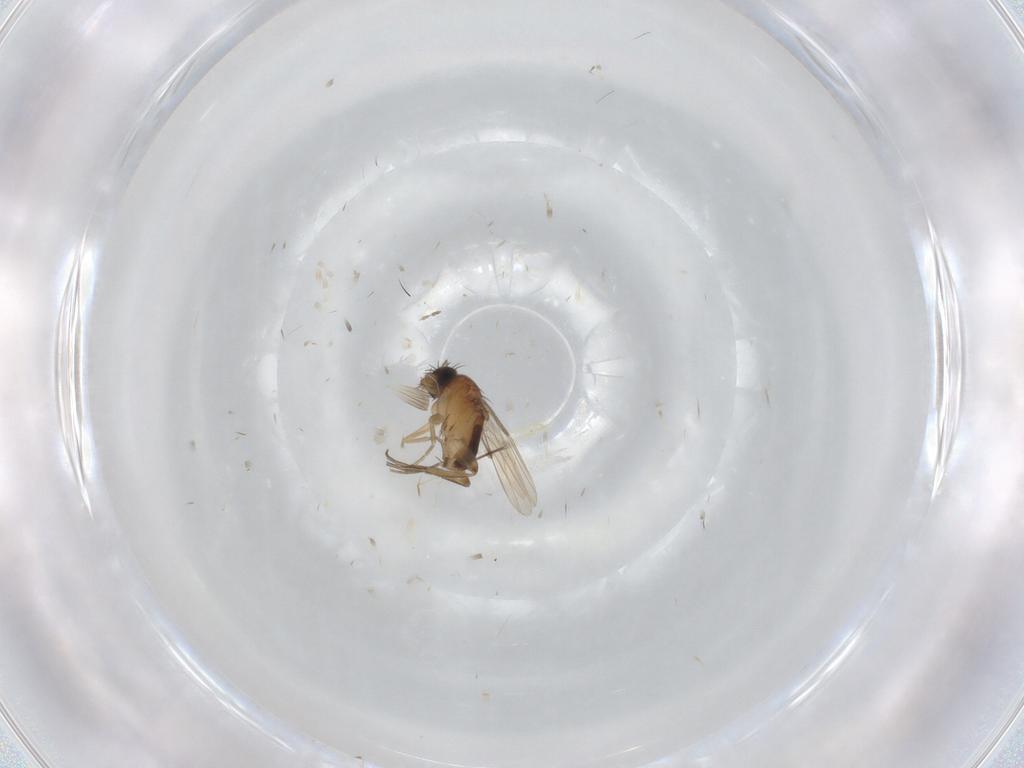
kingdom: Animalia
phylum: Arthropoda
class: Insecta
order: Diptera
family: Phoridae
